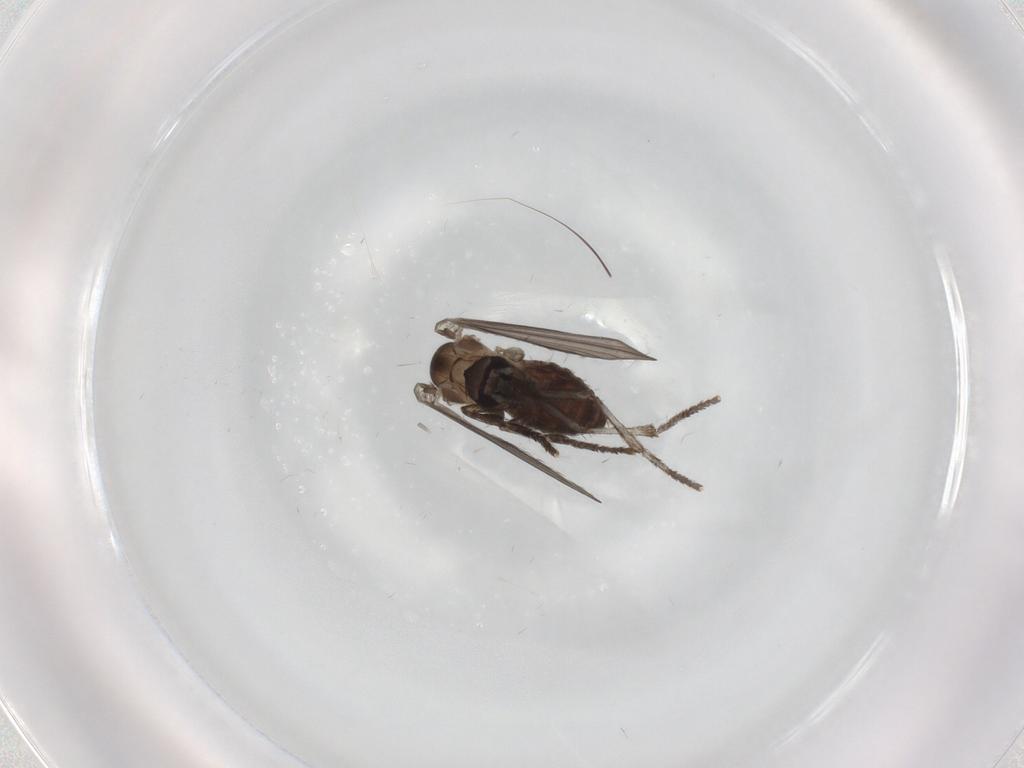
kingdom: Animalia
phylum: Arthropoda
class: Insecta
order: Diptera
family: Psychodidae
